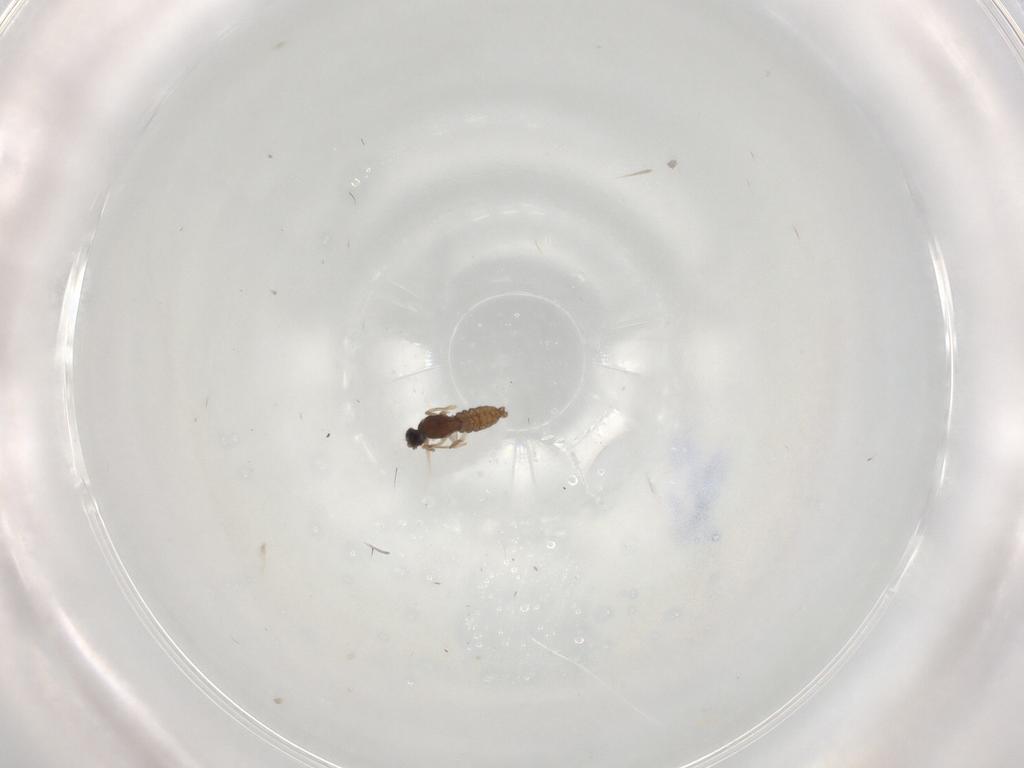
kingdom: Animalia
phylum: Arthropoda
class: Insecta
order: Diptera
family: Cecidomyiidae
